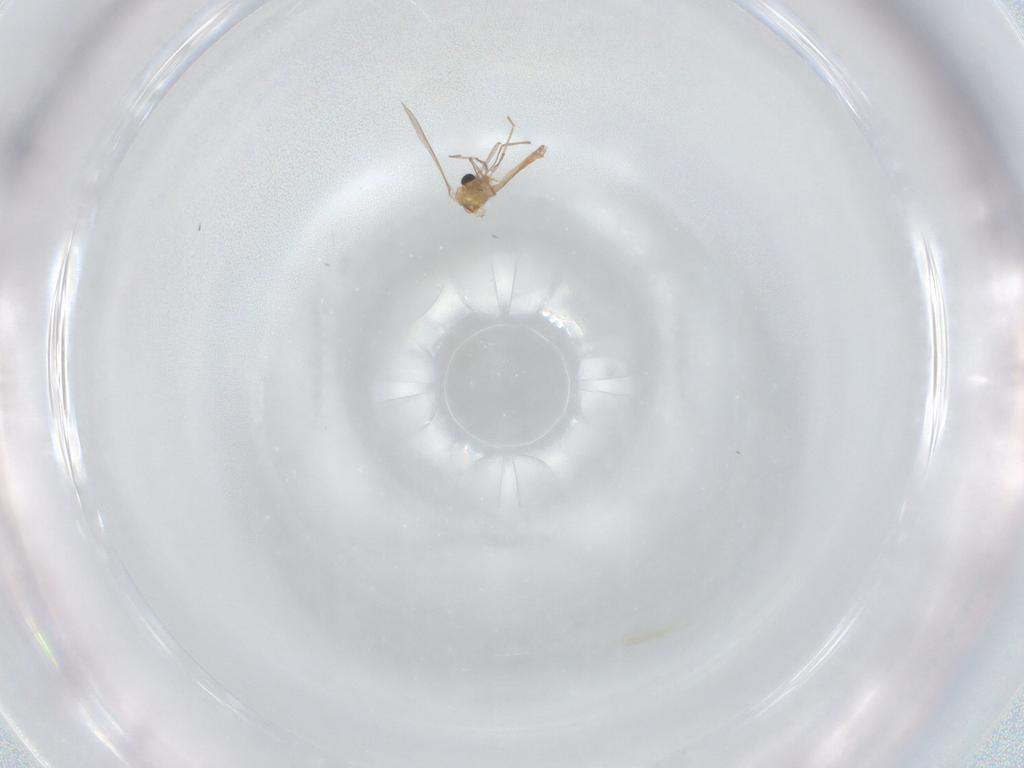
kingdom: Animalia
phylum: Arthropoda
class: Insecta
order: Diptera
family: Chironomidae
